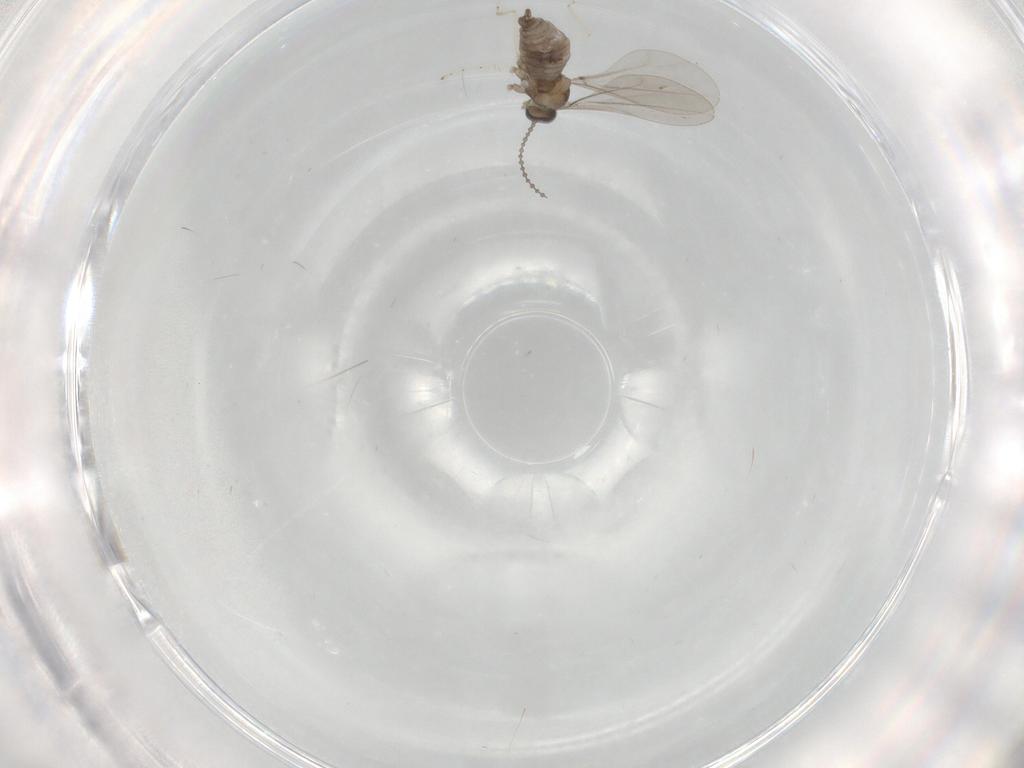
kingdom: Animalia
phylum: Arthropoda
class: Insecta
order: Diptera
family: Cecidomyiidae
